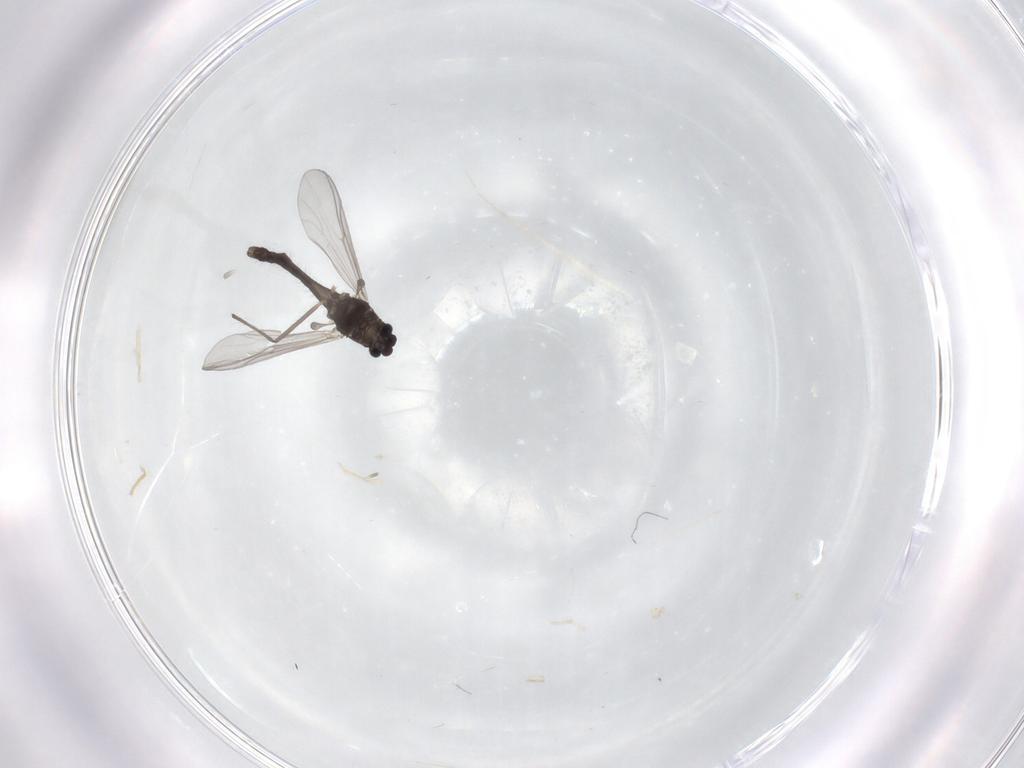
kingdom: Animalia
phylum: Arthropoda
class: Insecta
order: Diptera
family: Chironomidae
